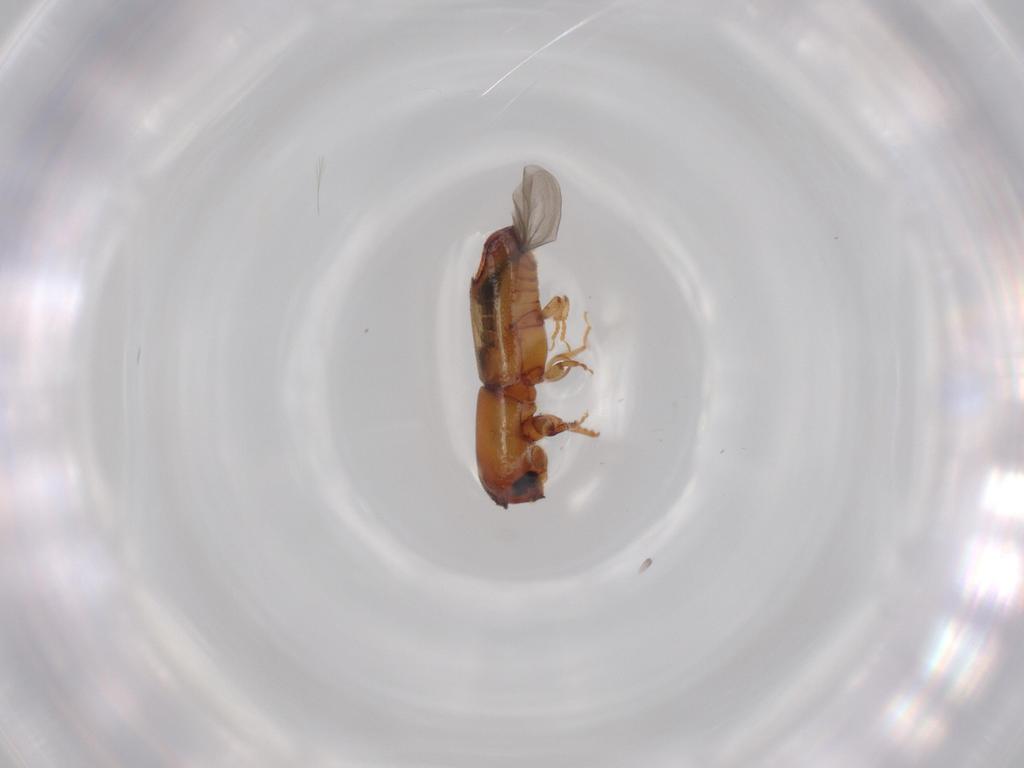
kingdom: Animalia
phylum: Arthropoda
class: Insecta
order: Coleoptera
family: Curculionidae
